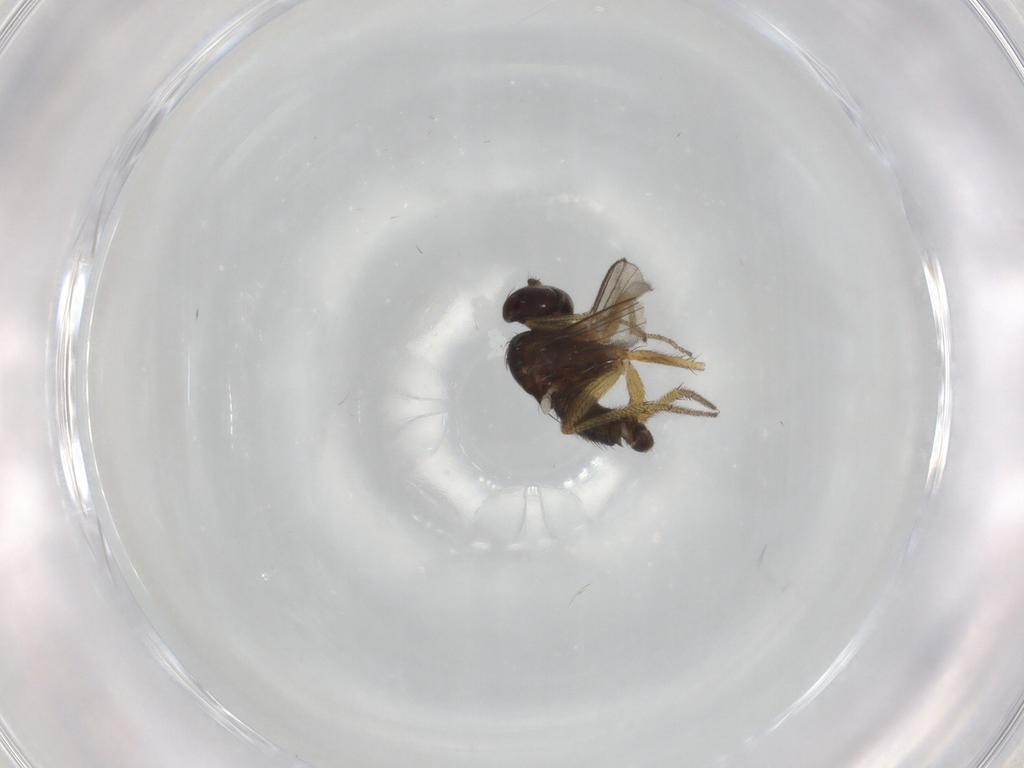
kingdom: Animalia
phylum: Arthropoda
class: Insecta
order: Diptera
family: Dolichopodidae
